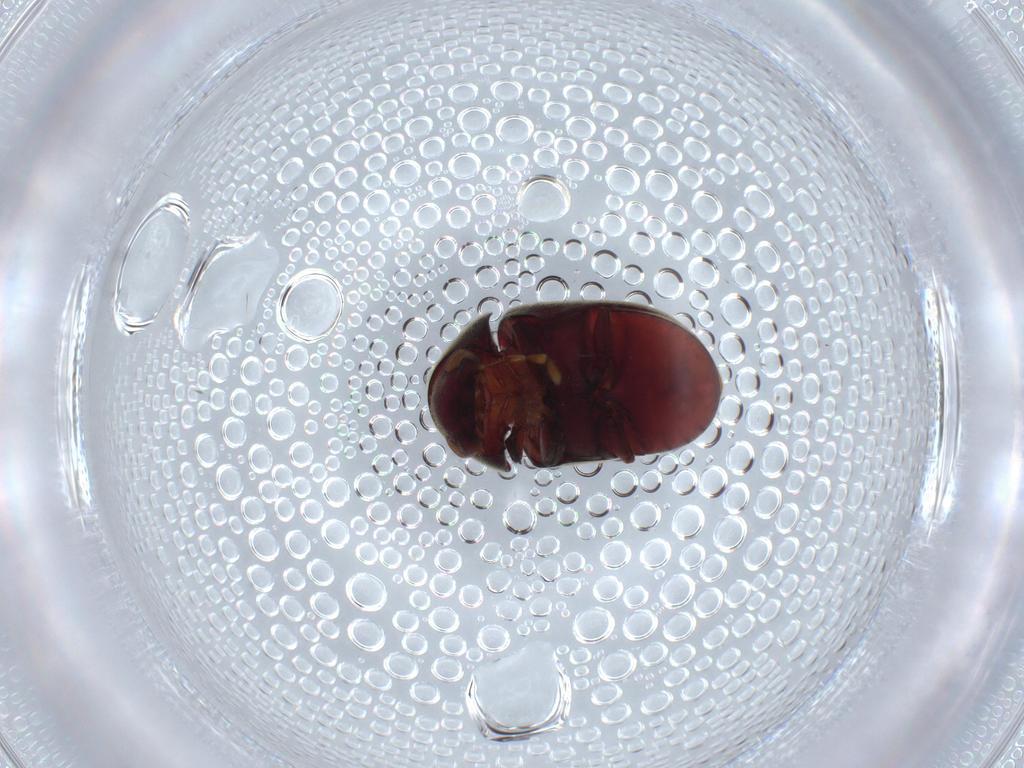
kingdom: Animalia
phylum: Arthropoda
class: Insecta
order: Coleoptera
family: Ptinidae
